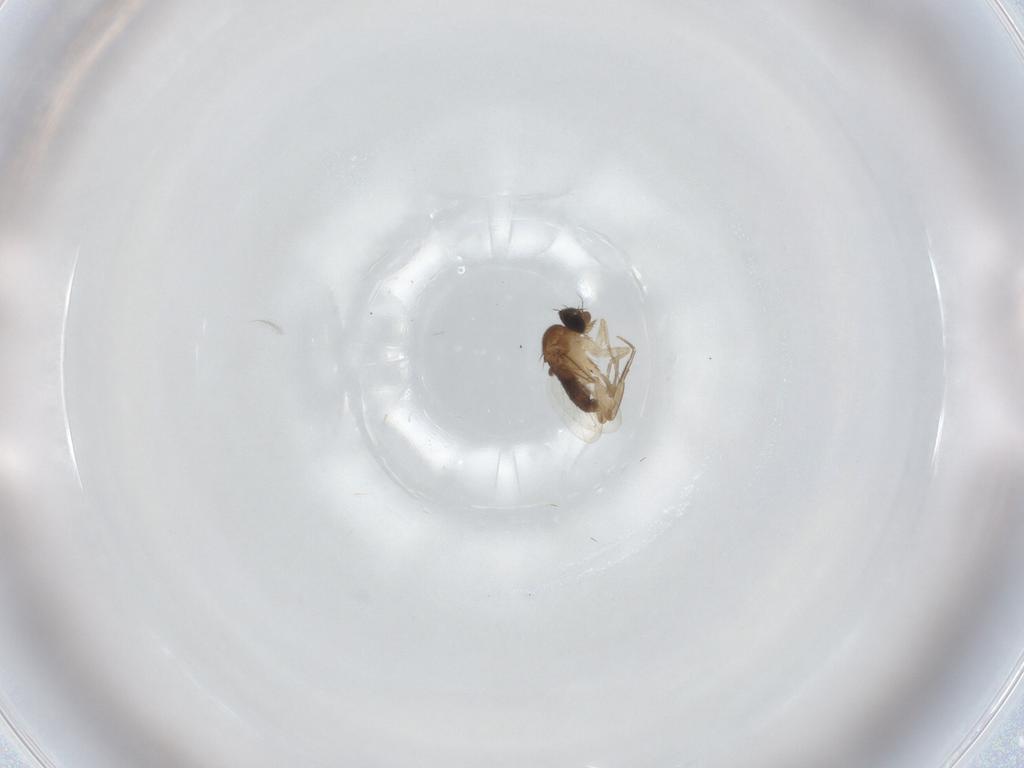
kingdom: Animalia
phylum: Arthropoda
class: Insecta
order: Diptera
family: Phoridae
